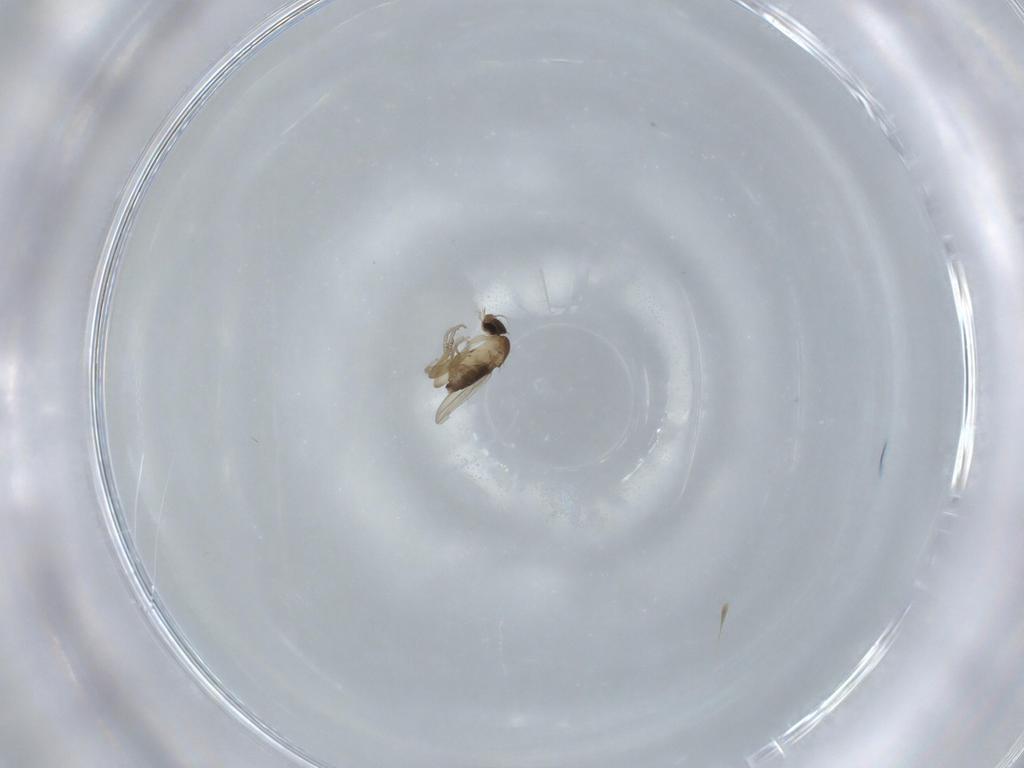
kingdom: Animalia
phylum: Arthropoda
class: Insecta
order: Diptera
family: Phoridae
